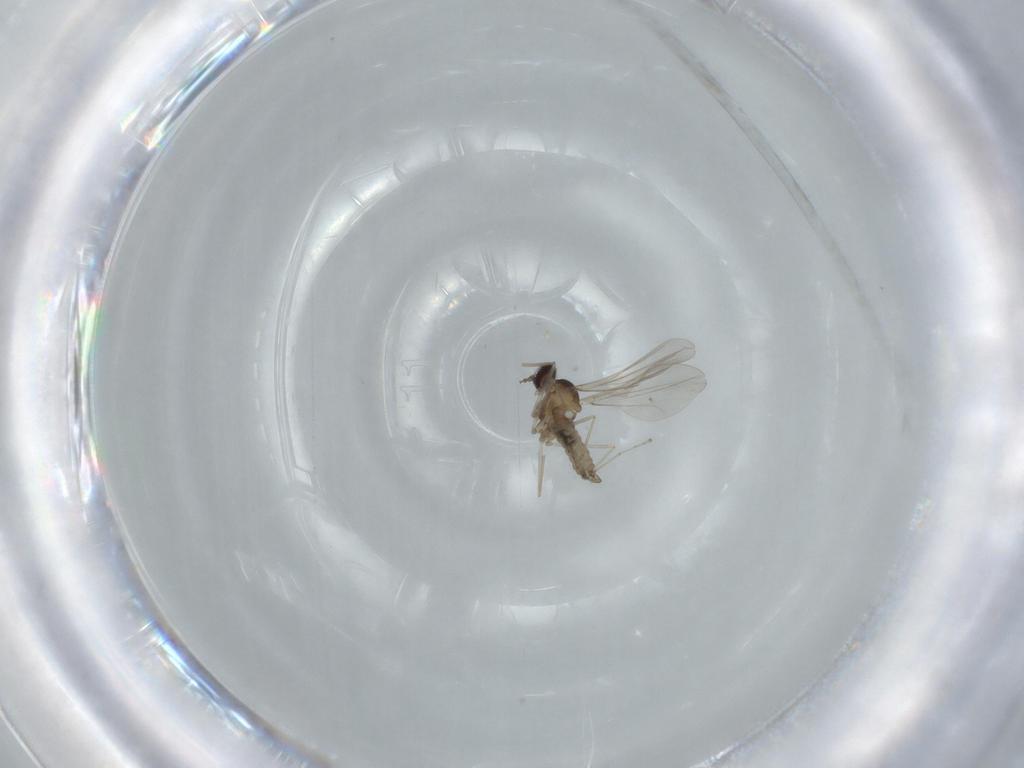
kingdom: Animalia
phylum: Arthropoda
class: Insecta
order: Diptera
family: Cecidomyiidae
